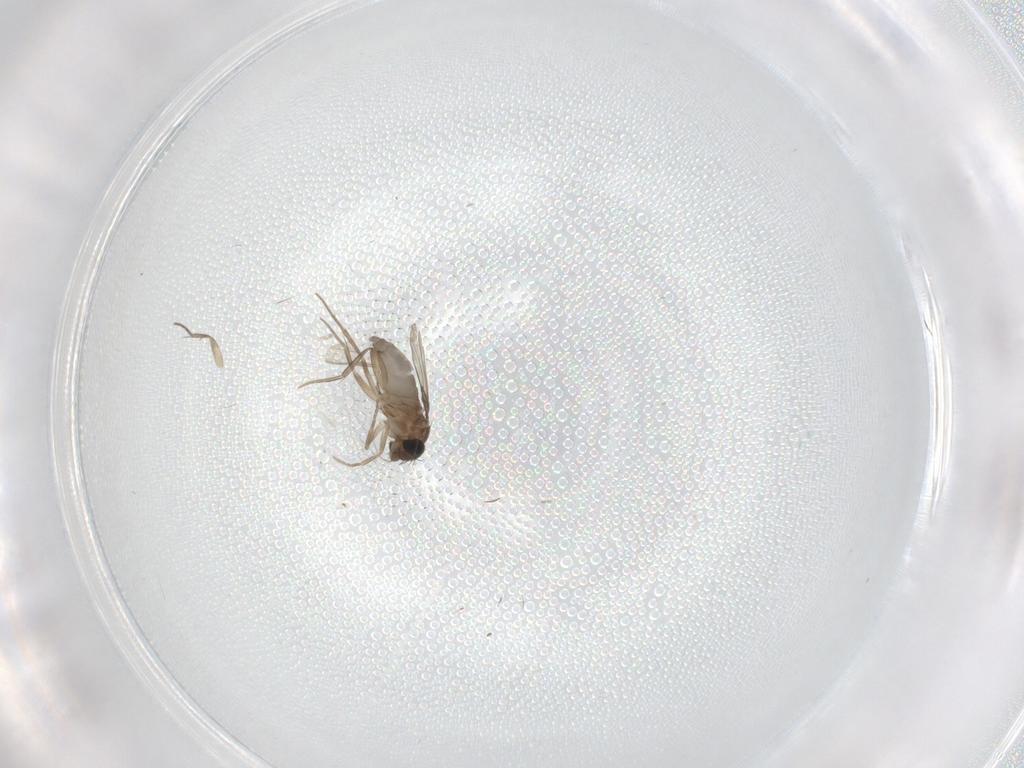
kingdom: Animalia
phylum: Arthropoda
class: Insecta
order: Diptera
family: Phoridae
